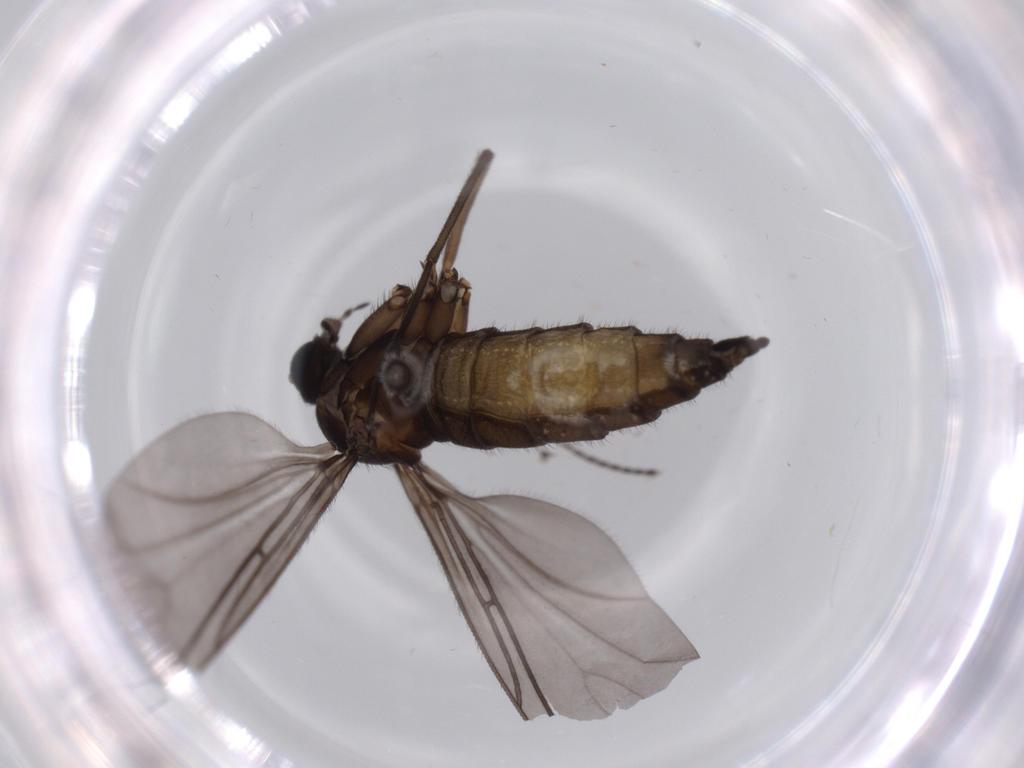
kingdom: Animalia
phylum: Arthropoda
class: Insecta
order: Diptera
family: Sciaridae
